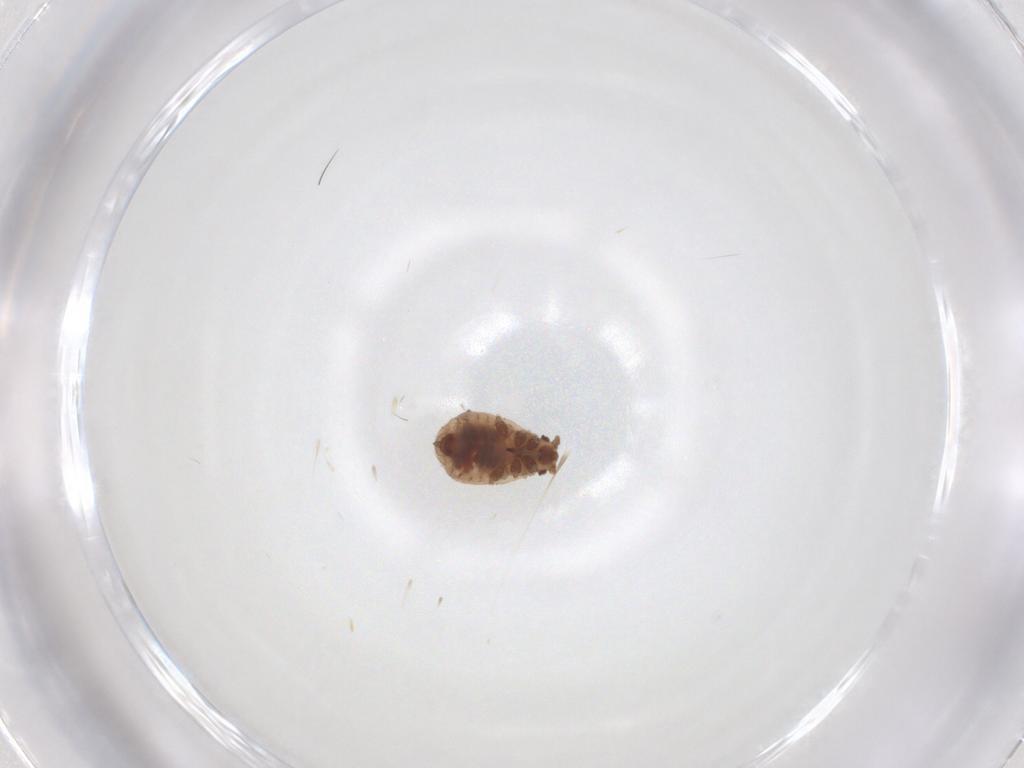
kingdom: Animalia
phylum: Arthropoda
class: Insecta
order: Hemiptera
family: Aphididae
